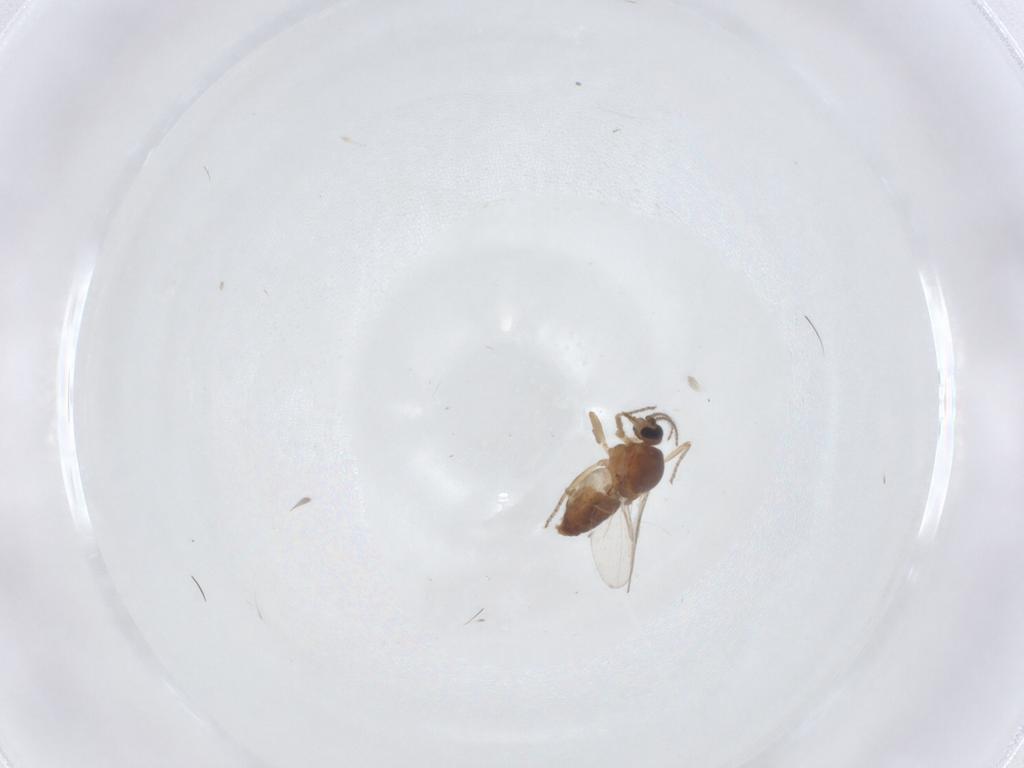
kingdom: Animalia
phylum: Arthropoda
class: Insecta
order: Diptera
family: Ceratopogonidae
